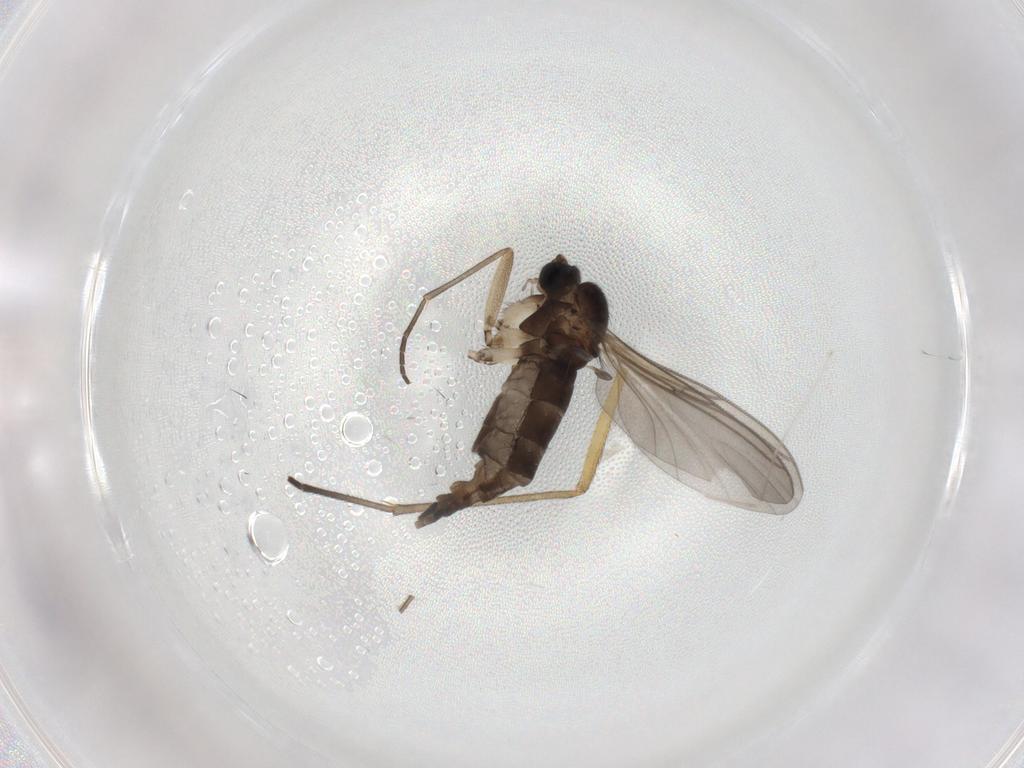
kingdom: Animalia
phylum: Arthropoda
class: Insecta
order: Diptera
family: Sciaridae
